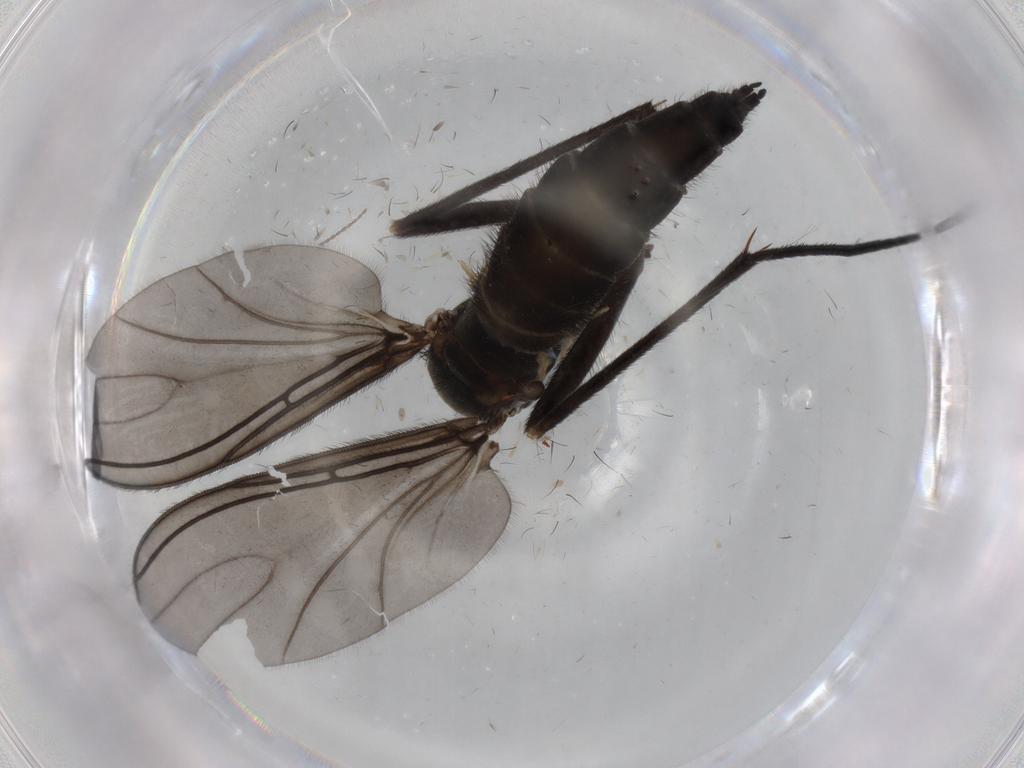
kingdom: Animalia
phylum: Arthropoda
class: Insecta
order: Diptera
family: Sciaridae
